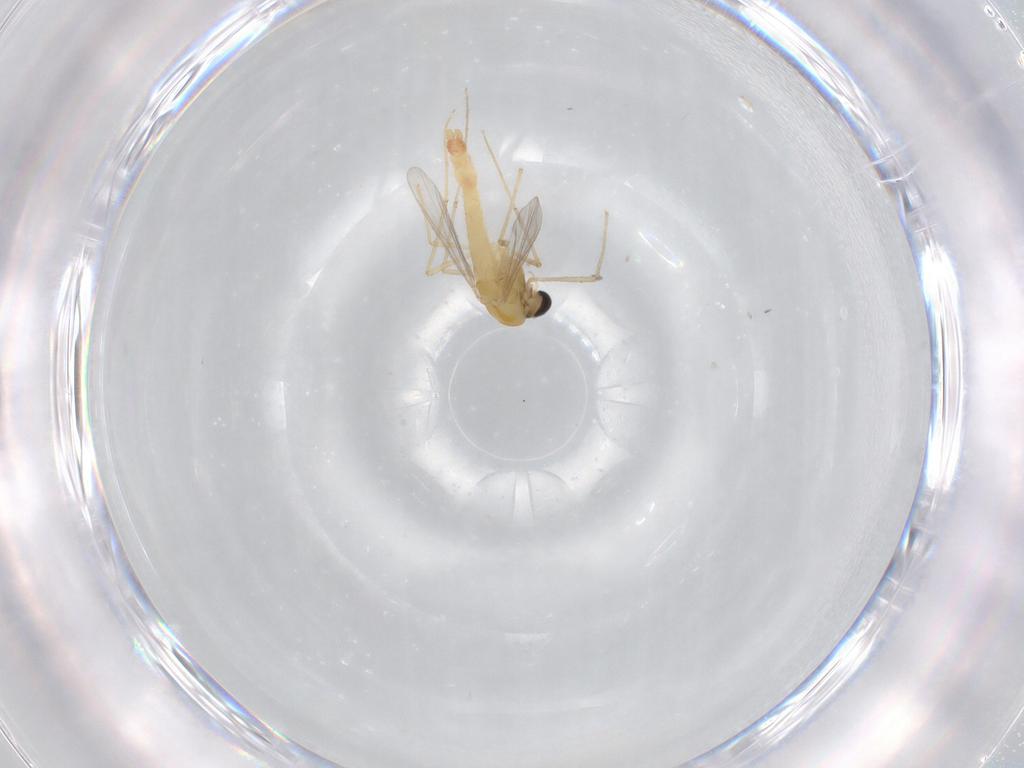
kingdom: Animalia
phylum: Arthropoda
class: Insecta
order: Diptera
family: Chironomidae
